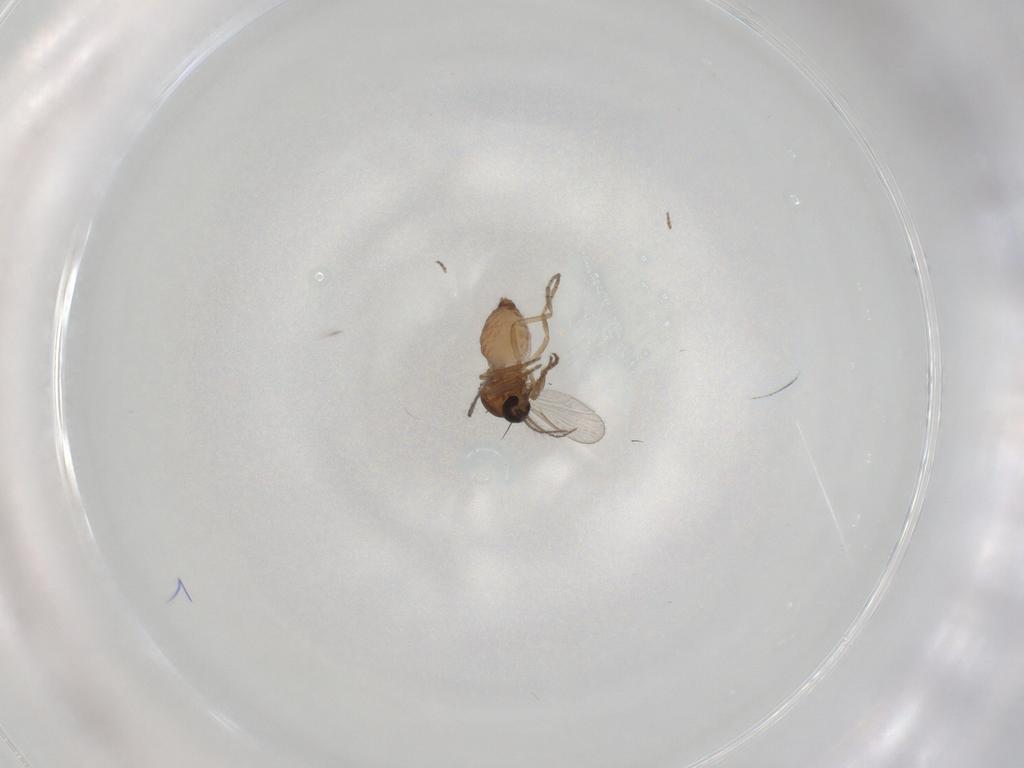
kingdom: Animalia
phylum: Arthropoda
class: Insecta
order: Diptera
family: Psychodidae
